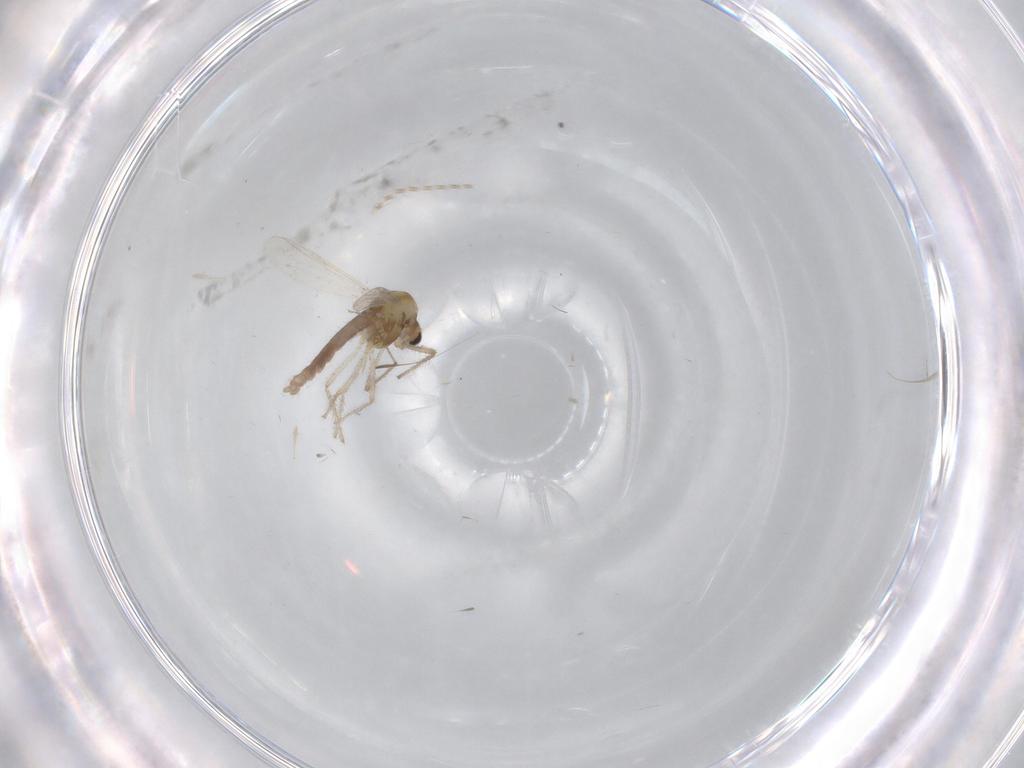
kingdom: Animalia
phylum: Arthropoda
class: Insecta
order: Diptera
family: Chironomidae
